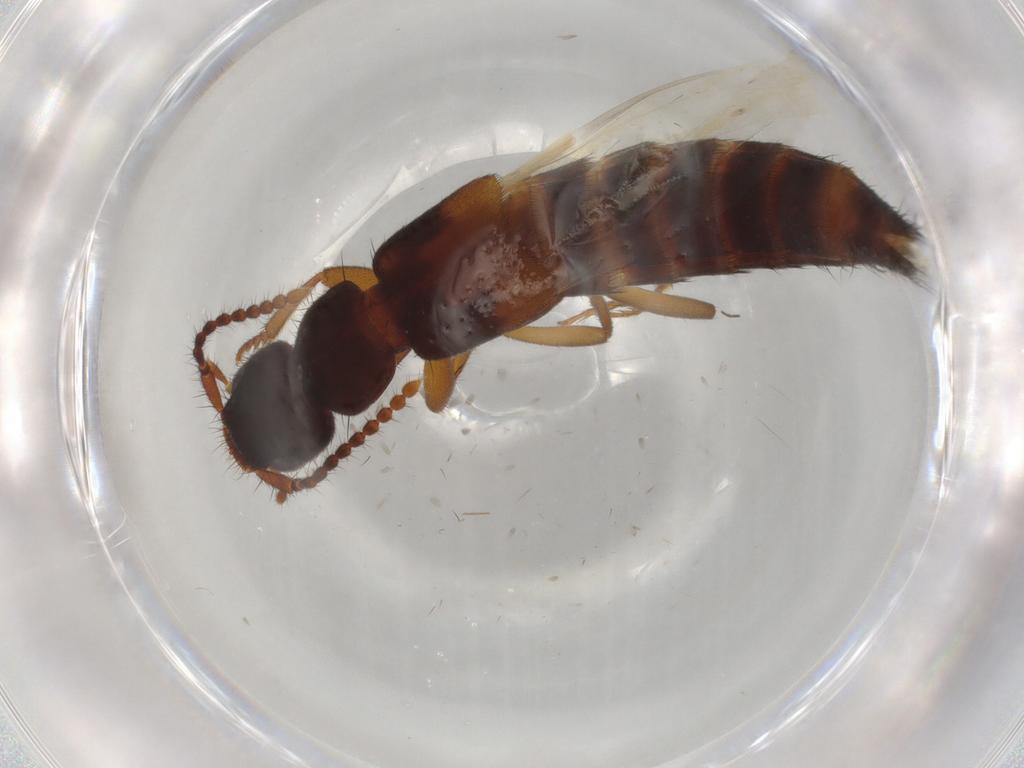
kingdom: Animalia
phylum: Arthropoda
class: Insecta
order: Coleoptera
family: Staphylinidae
